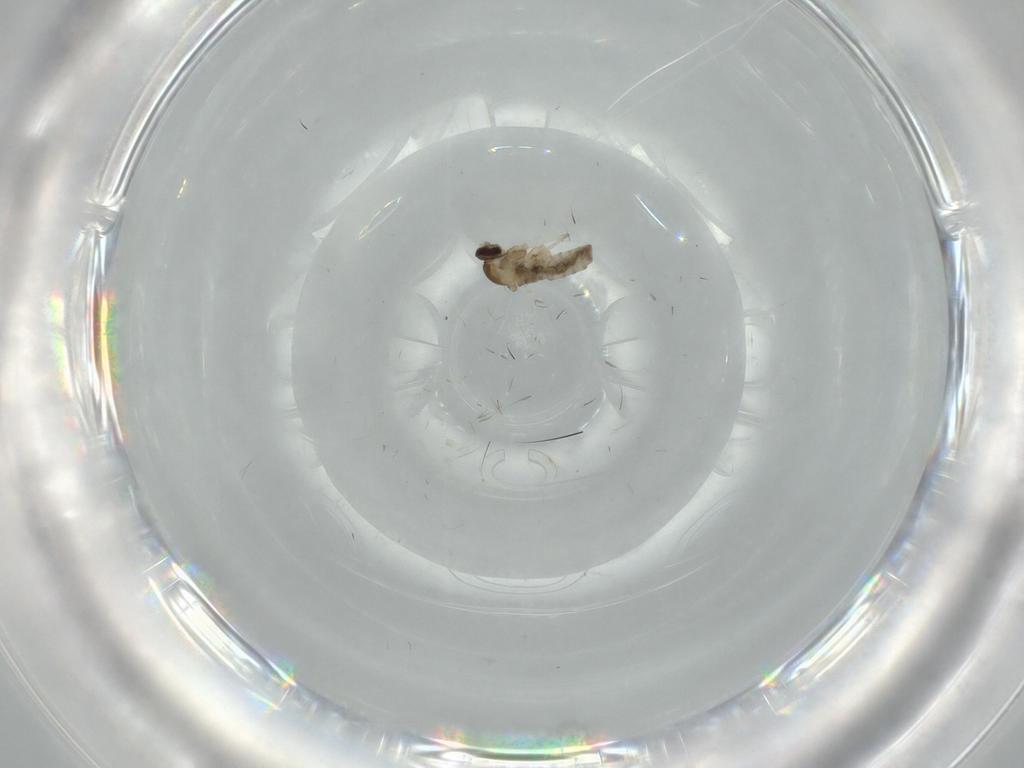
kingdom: Animalia
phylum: Arthropoda
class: Insecta
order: Diptera
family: Cecidomyiidae
